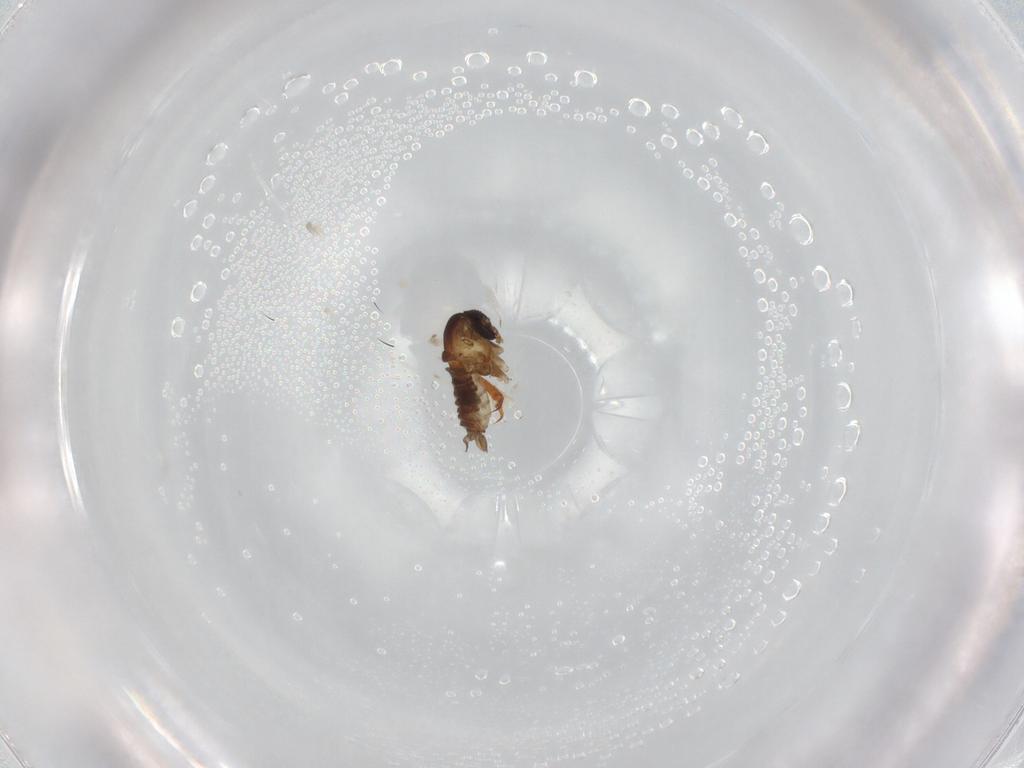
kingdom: Animalia
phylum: Arthropoda
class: Insecta
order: Diptera
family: Psychodidae
